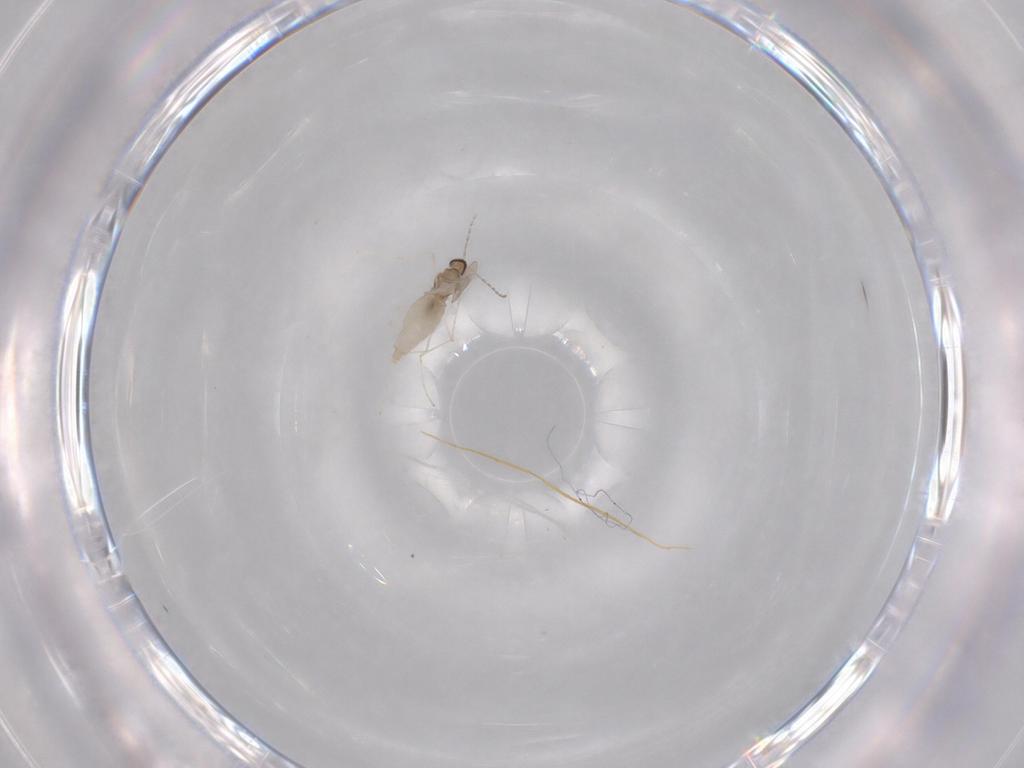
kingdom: Animalia
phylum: Arthropoda
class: Insecta
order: Diptera
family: Cecidomyiidae
